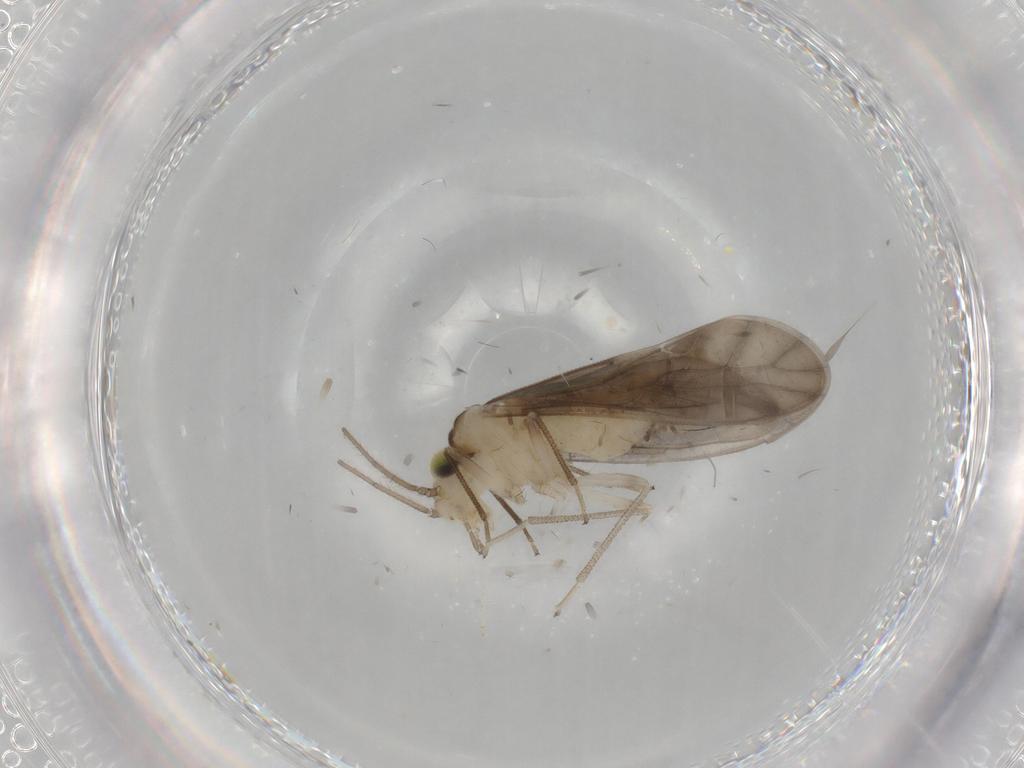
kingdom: Animalia
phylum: Arthropoda
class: Insecta
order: Psocodea
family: Caeciliusidae
